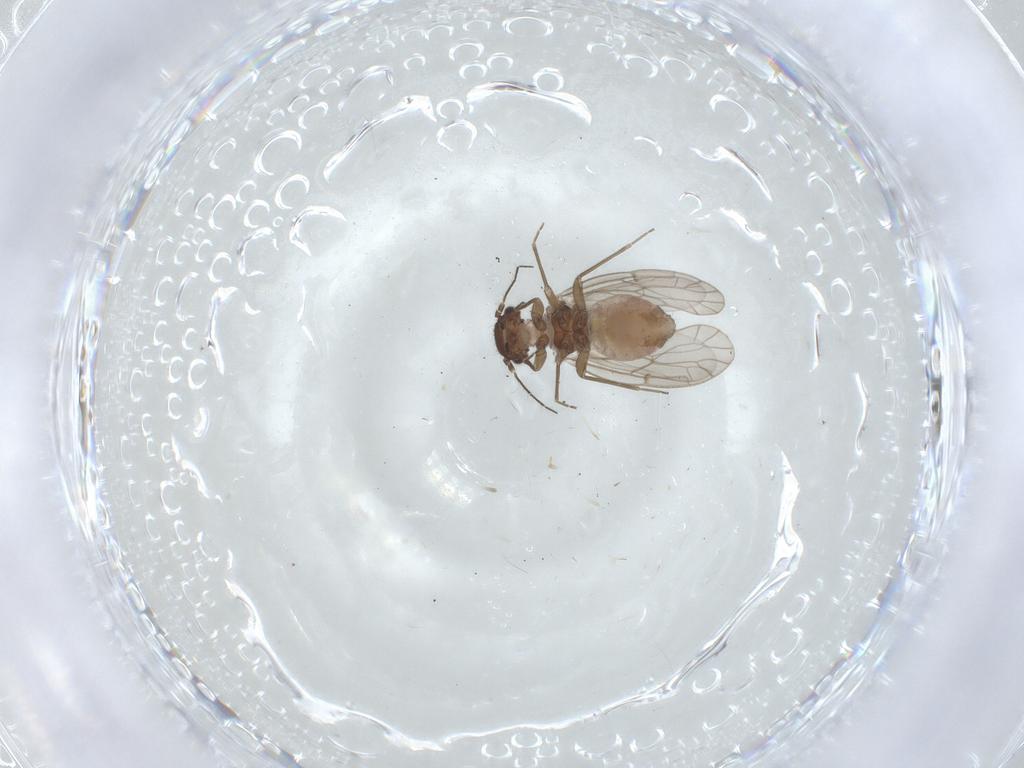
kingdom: Animalia
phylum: Arthropoda
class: Insecta
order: Psocodea
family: Ectopsocidae
